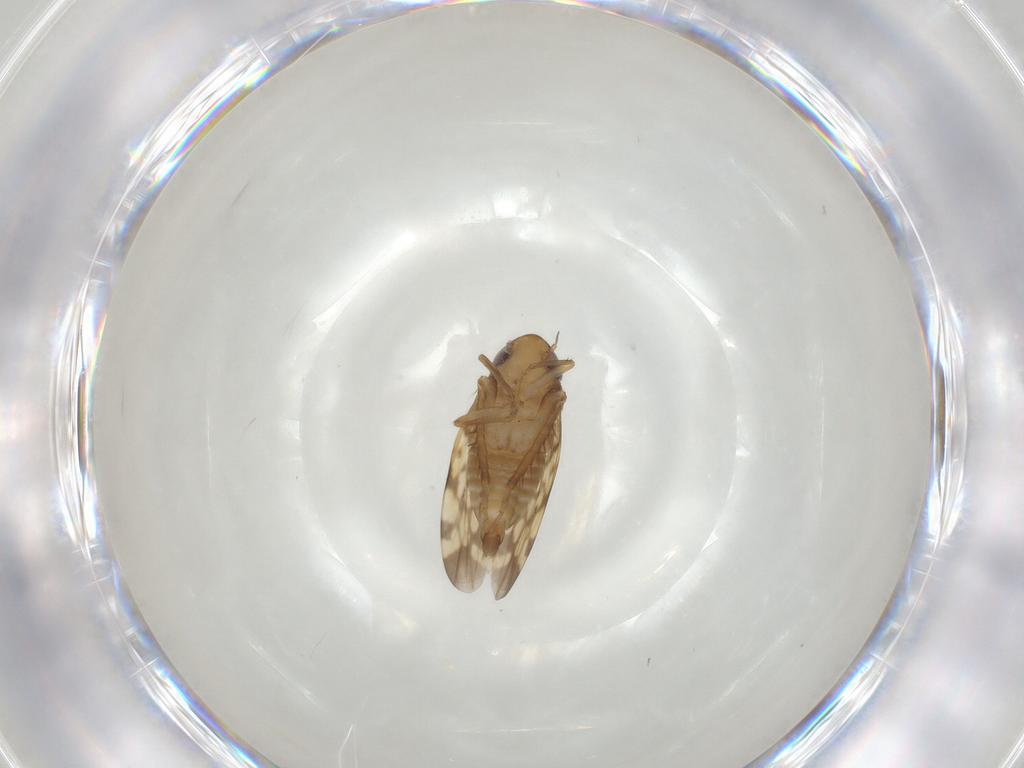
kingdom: Animalia
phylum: Arthropoda
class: Insecta
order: Hemiptera
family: Cicadellidae
